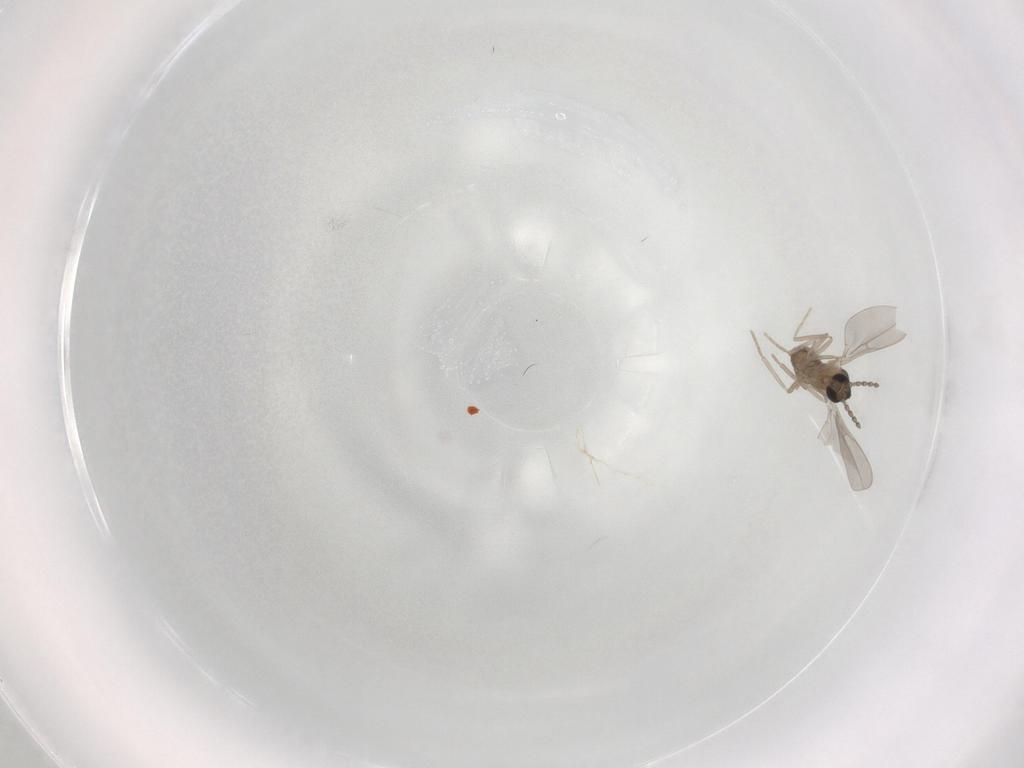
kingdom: Animalia
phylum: Arthropoda
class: Insecta
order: Diptera
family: Cecidomyiidae
